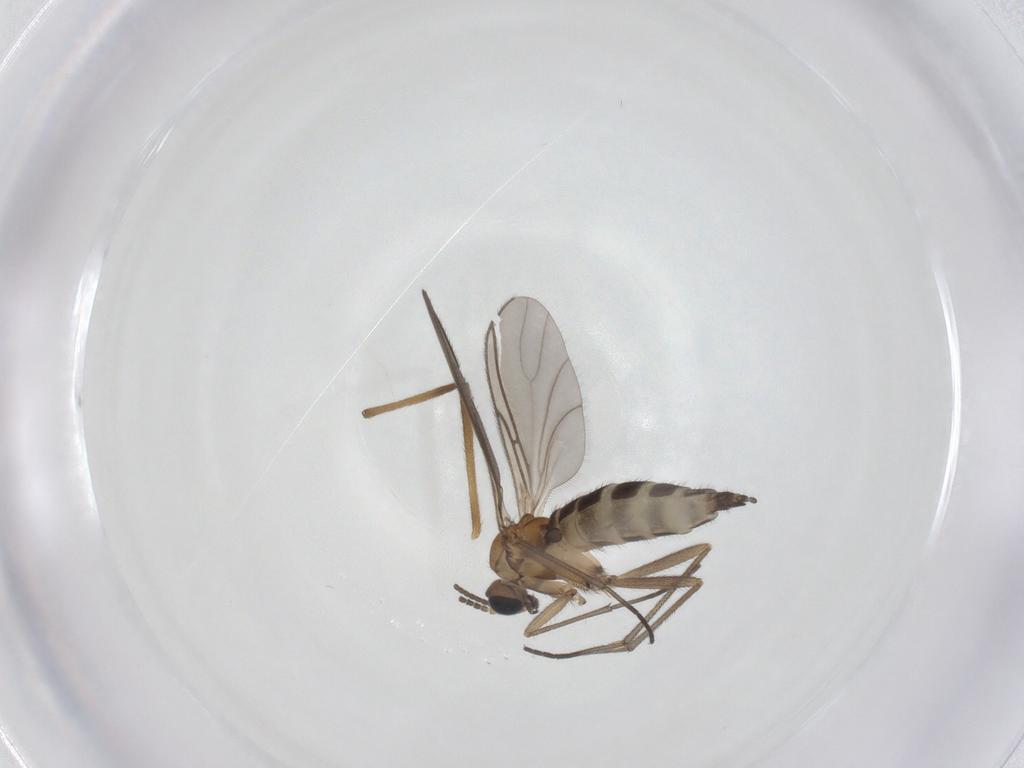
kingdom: Animalia
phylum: Arthropoda
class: Insecta
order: Diptera
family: Sciaridae
